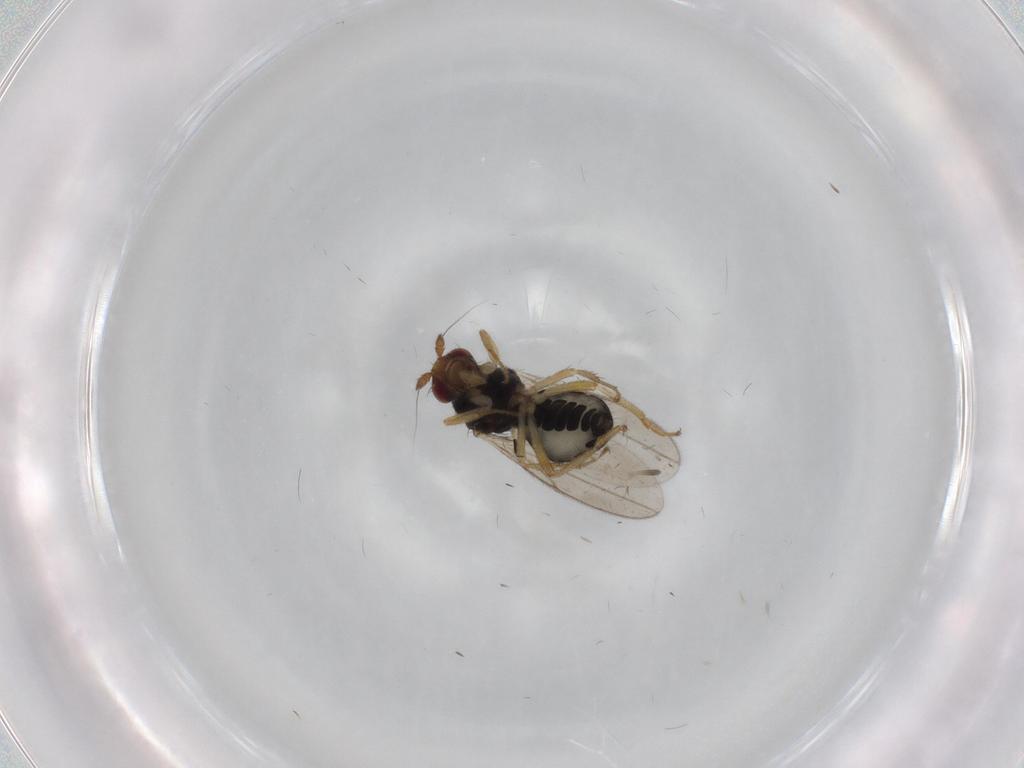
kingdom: Animalia
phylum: Arthropoda
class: Insecta
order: Diptera
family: Sphaeroceridae
